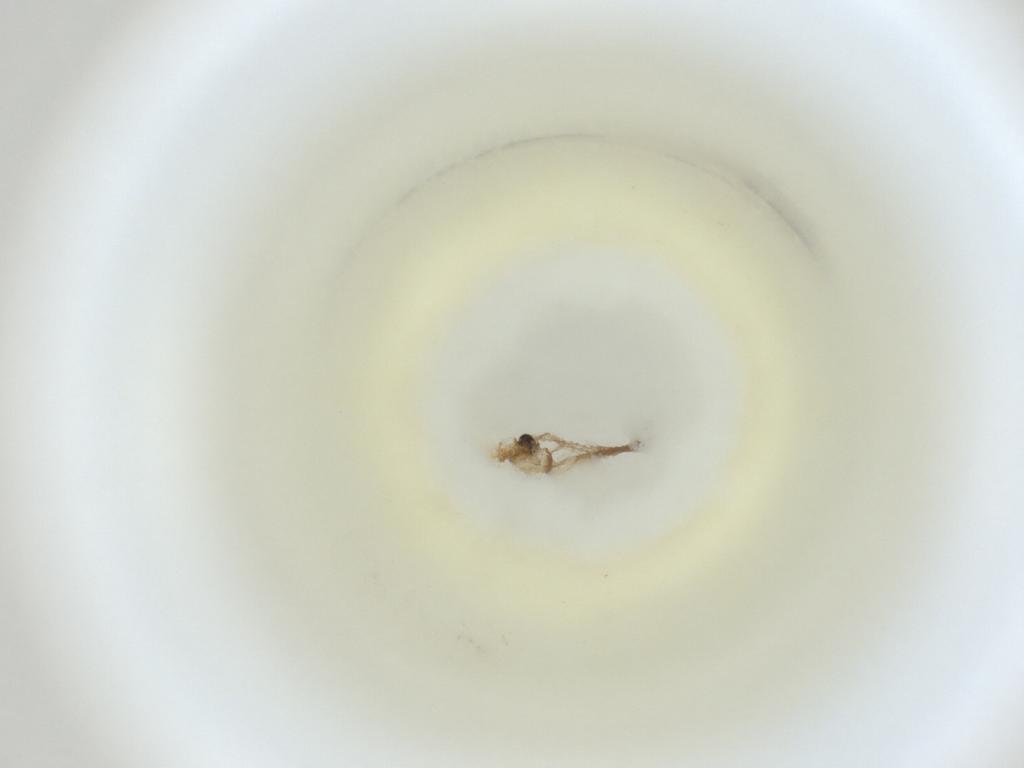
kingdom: Animalia
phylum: Arthropoda
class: Insecta
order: Diptera
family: Cecidomyiidae
